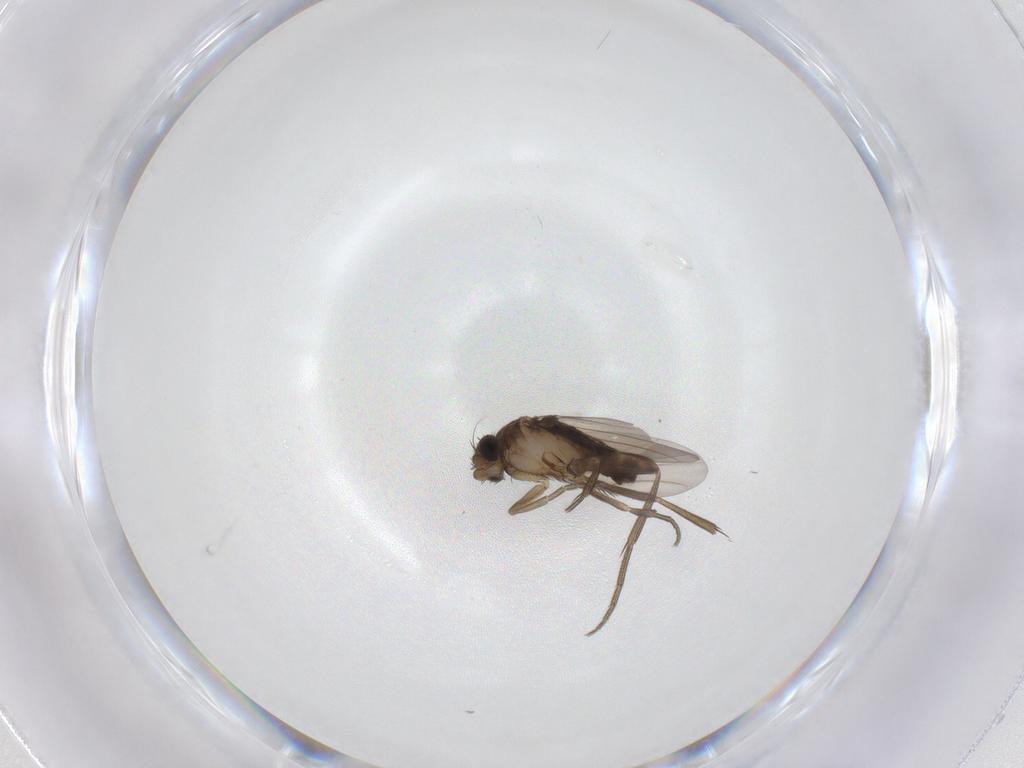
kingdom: Animalia
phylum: Arthropoda
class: Insecta
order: Diptera
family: Phoridae
